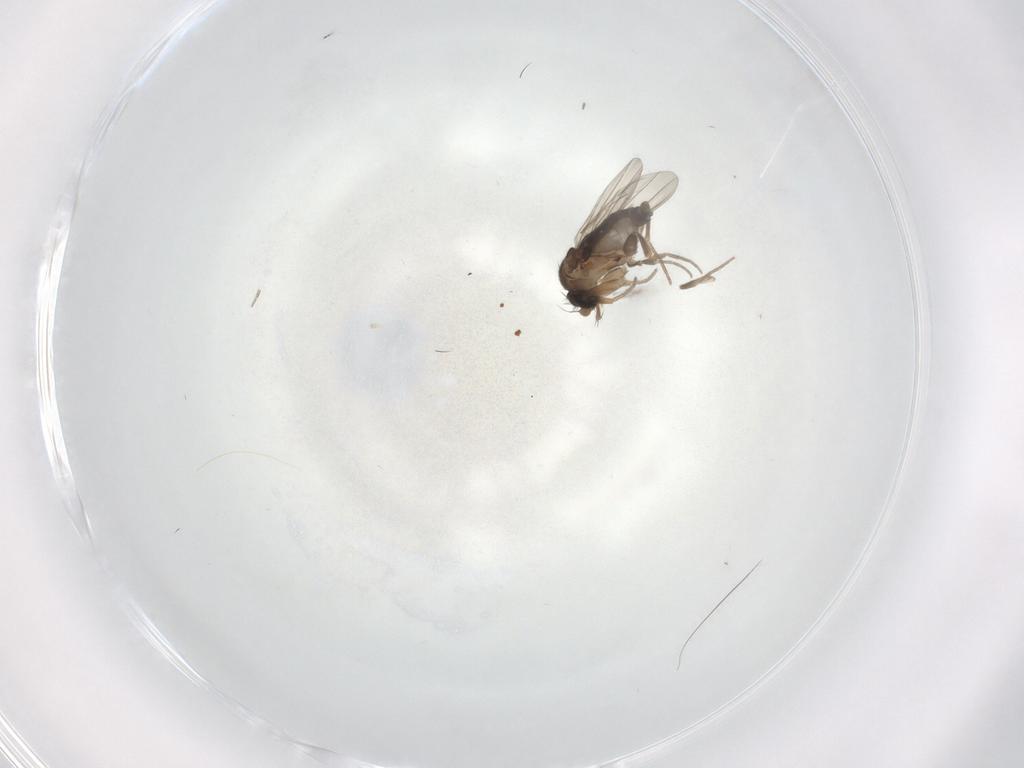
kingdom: Animalia
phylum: Arthropoda
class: Insecta
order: Diptera
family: Phoridae
